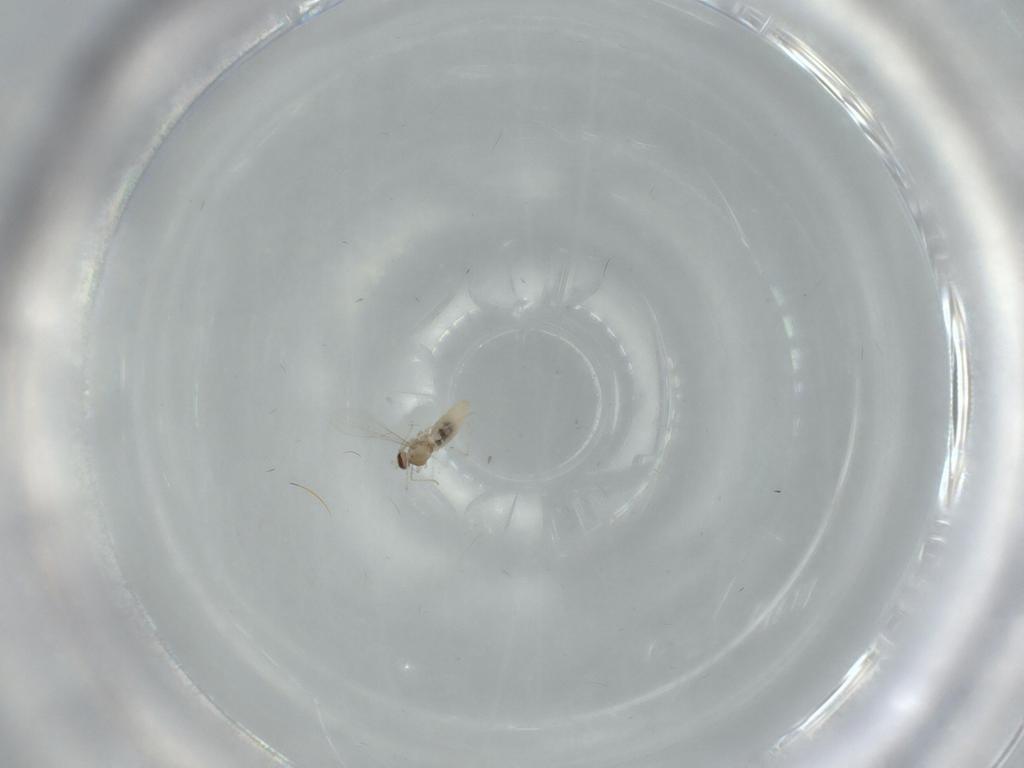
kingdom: Animalia
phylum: Arthropoda
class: Insecta
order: Diptera
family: Cecidomyiidae
